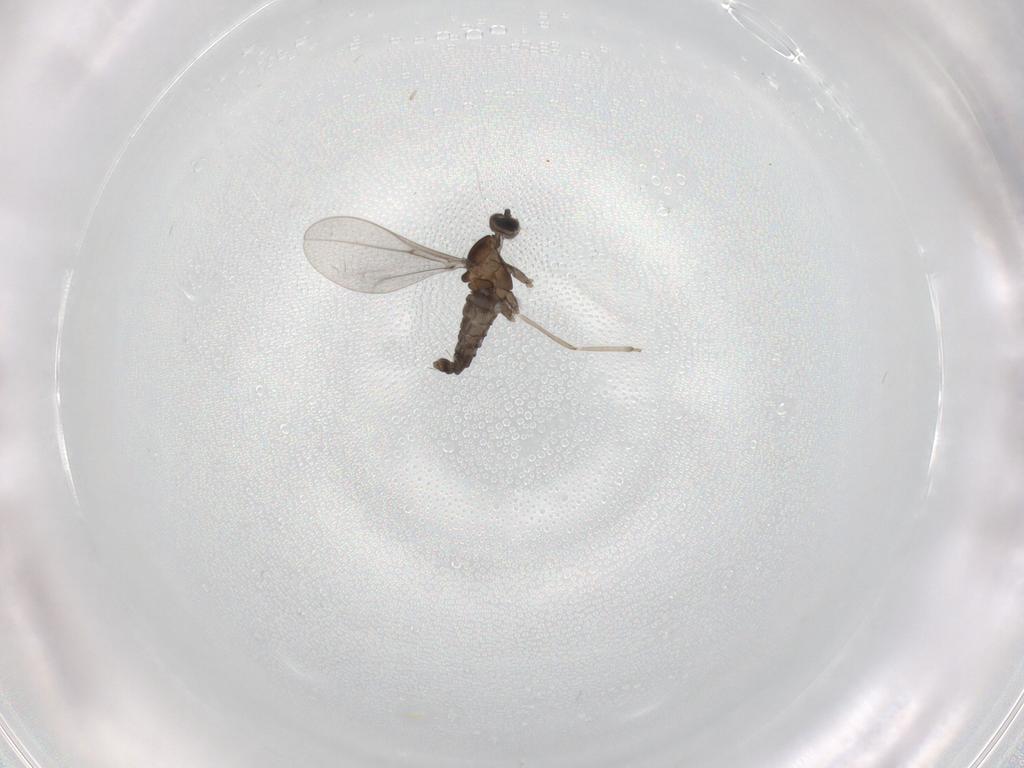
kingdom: Animalia
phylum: Arthropoda
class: Insecta
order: Diptera
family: Cecidomyiidae
